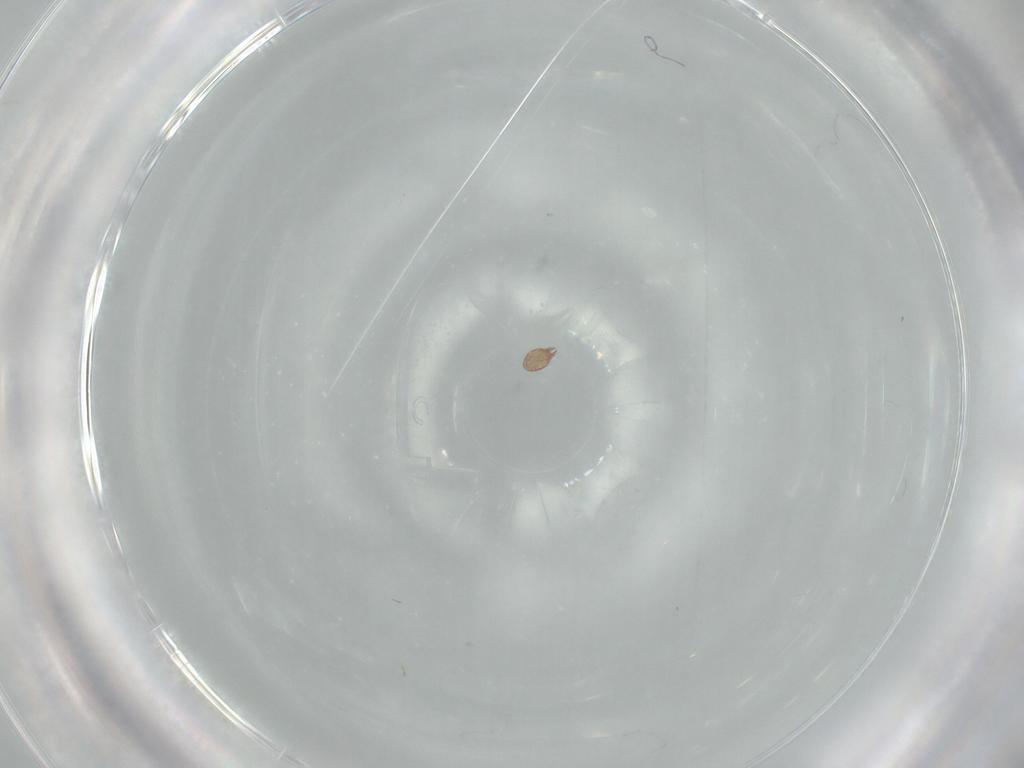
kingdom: Animalia
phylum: Arthropoda
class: Arachnida
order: Sarcoptiformes
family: Acaridae
